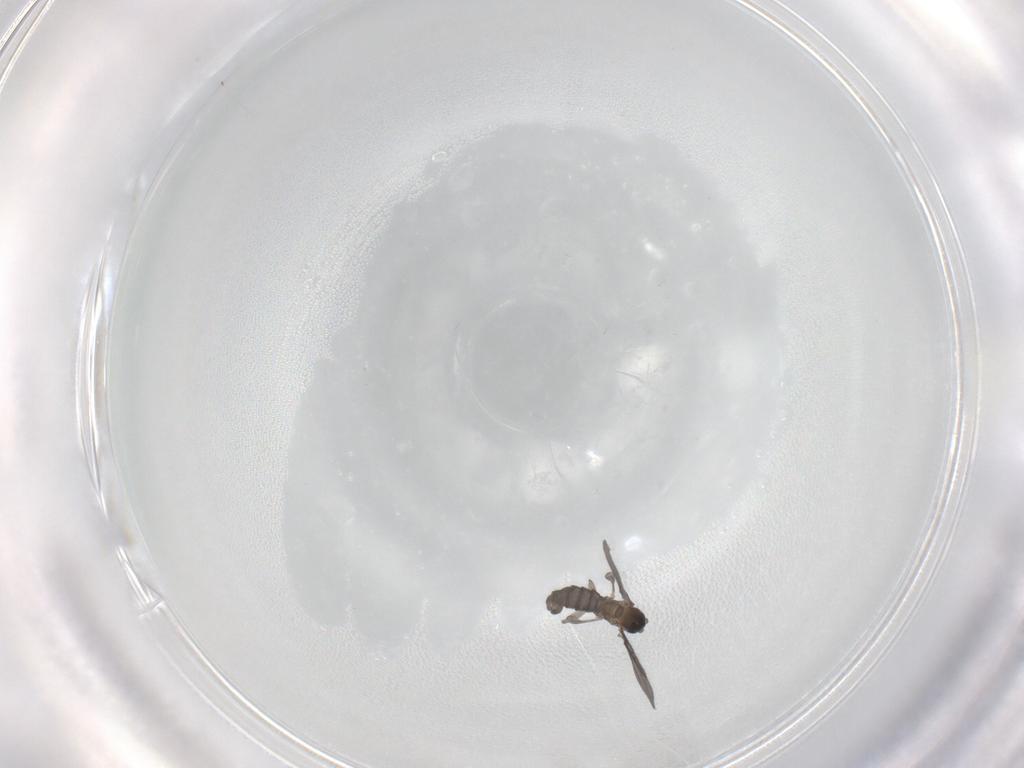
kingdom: Animalia
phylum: Arthropoda
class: Insecta
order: Diptera
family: Sciaridae
